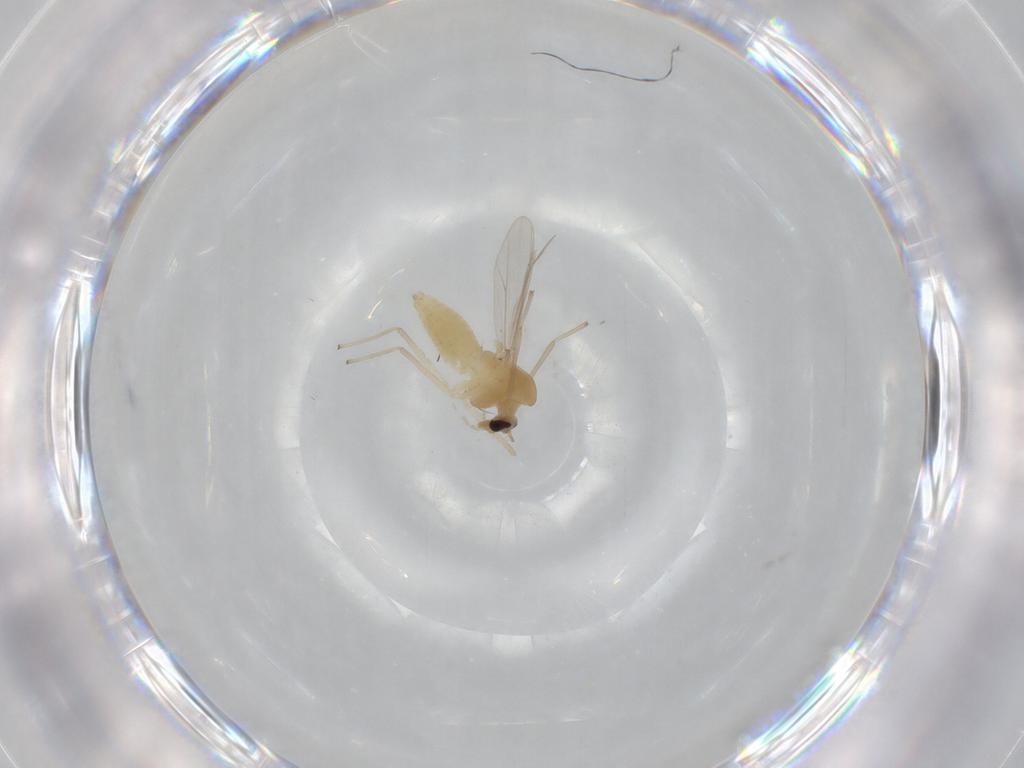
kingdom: Animalia
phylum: Arthropoda
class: Insecta
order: Diptera
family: Chironomidae
